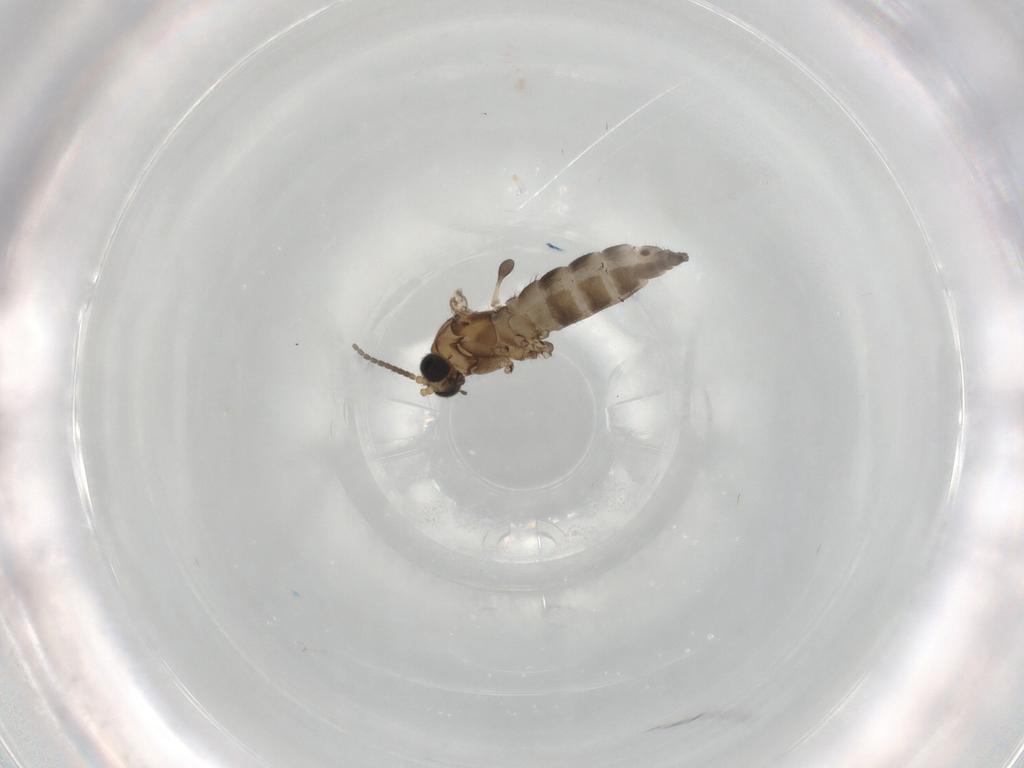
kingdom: Animalia
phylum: Arthropoda
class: Insecta
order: Diptera
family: Sciaridae
